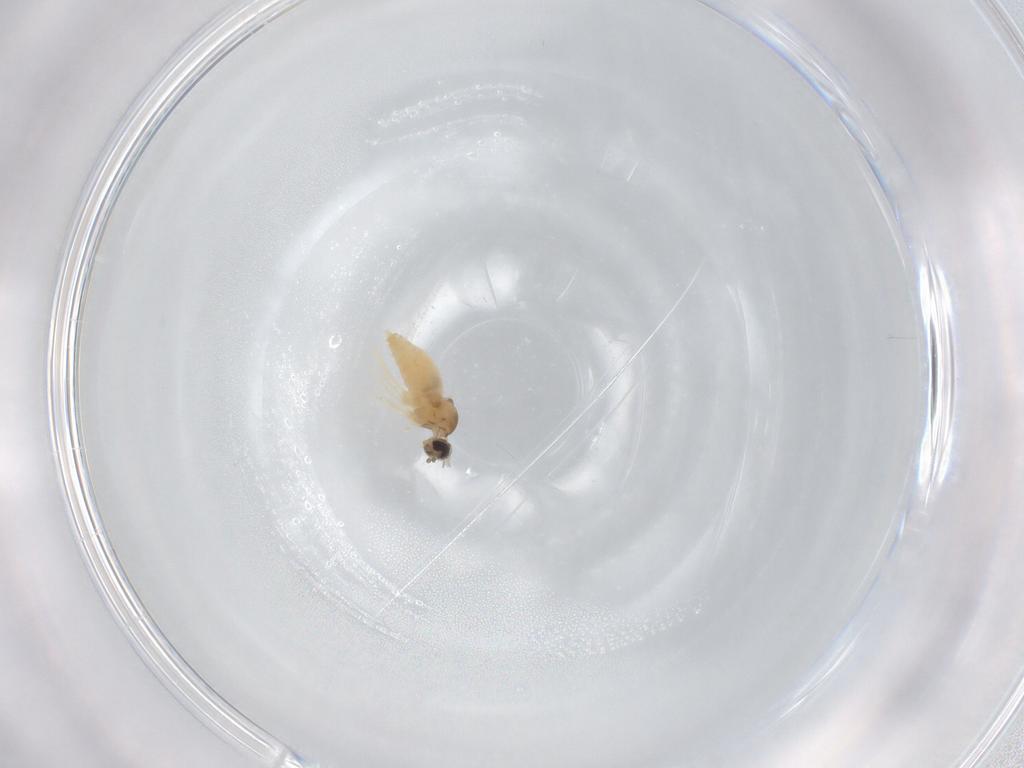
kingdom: Animalia
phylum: Arthropoda
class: Insecta
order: Diptera
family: Cecidomyiidae
